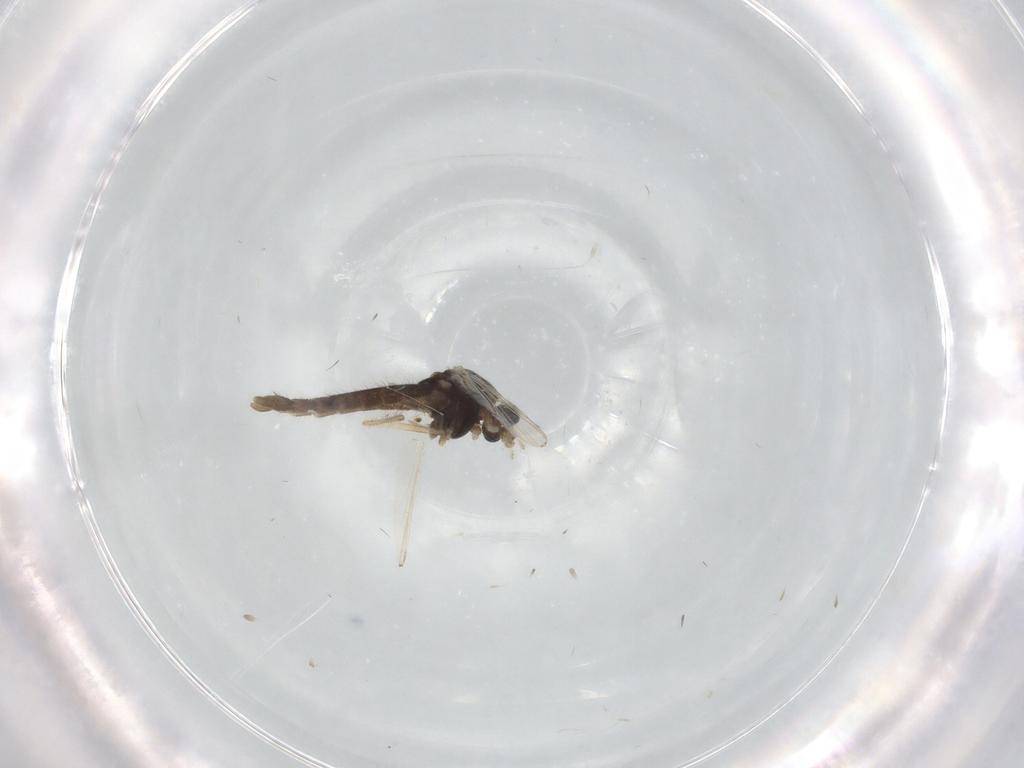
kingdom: Animalia
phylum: Arthropoda
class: Insecta
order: Diptera
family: Chironomidae
